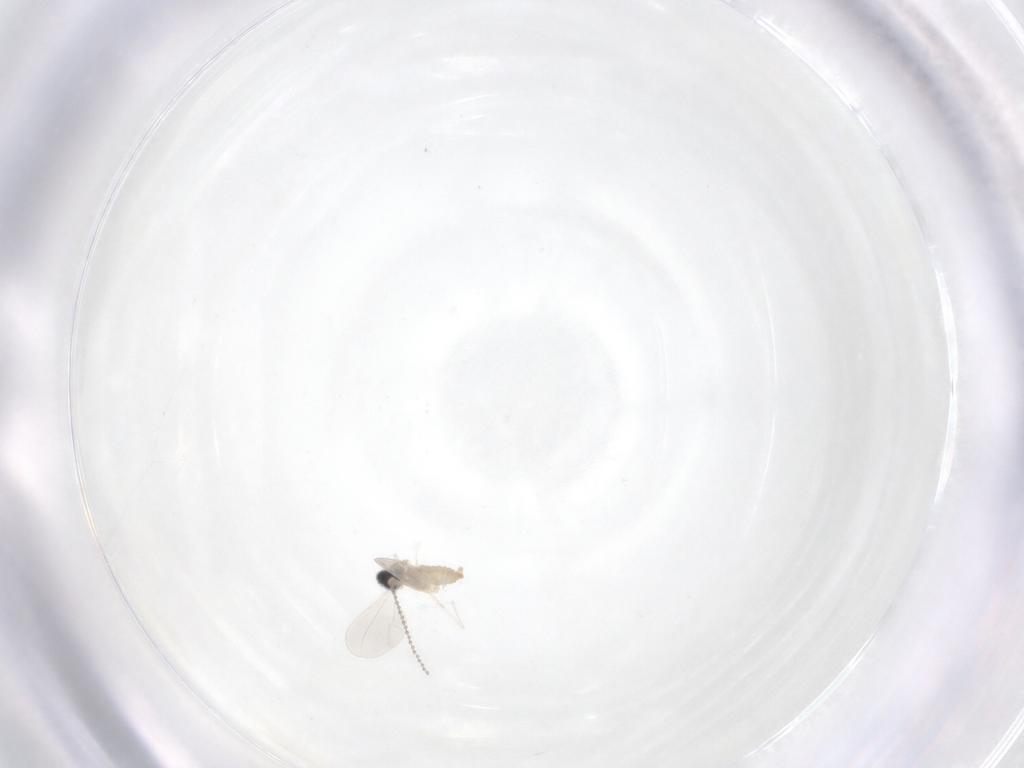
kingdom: Animalia
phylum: Arthropoda
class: Insecta
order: Diptera
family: Cecidomyiidae
